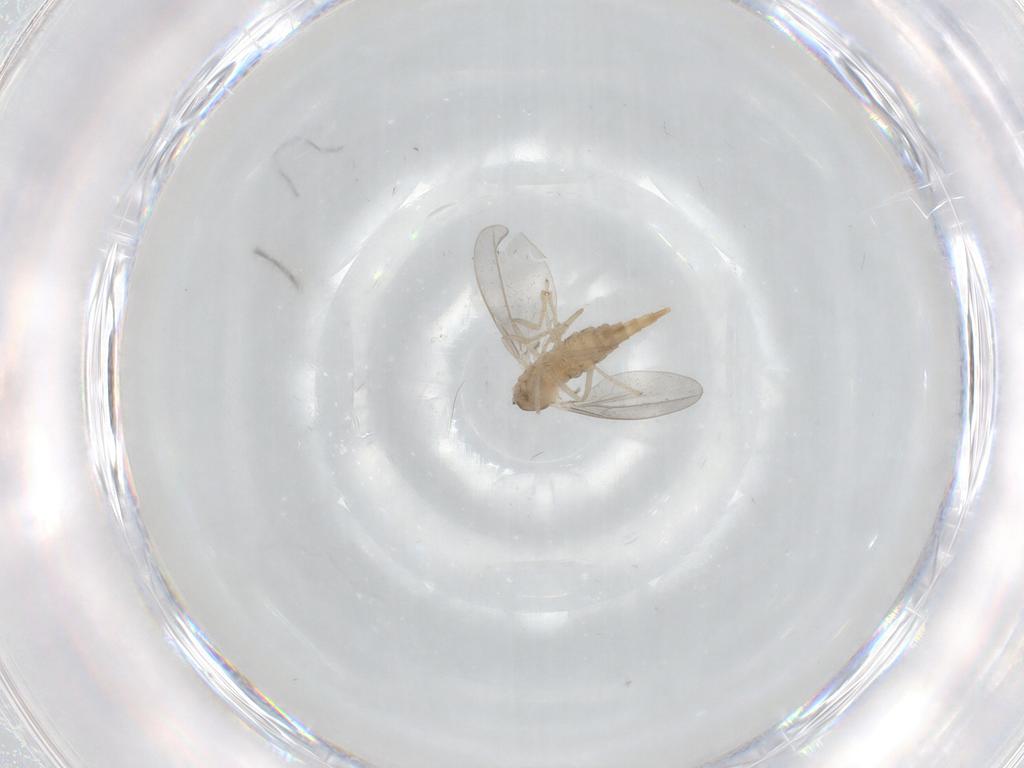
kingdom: Animalia
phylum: Arthropoda
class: Insecta
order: Diptera
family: Cecidomyiidae
